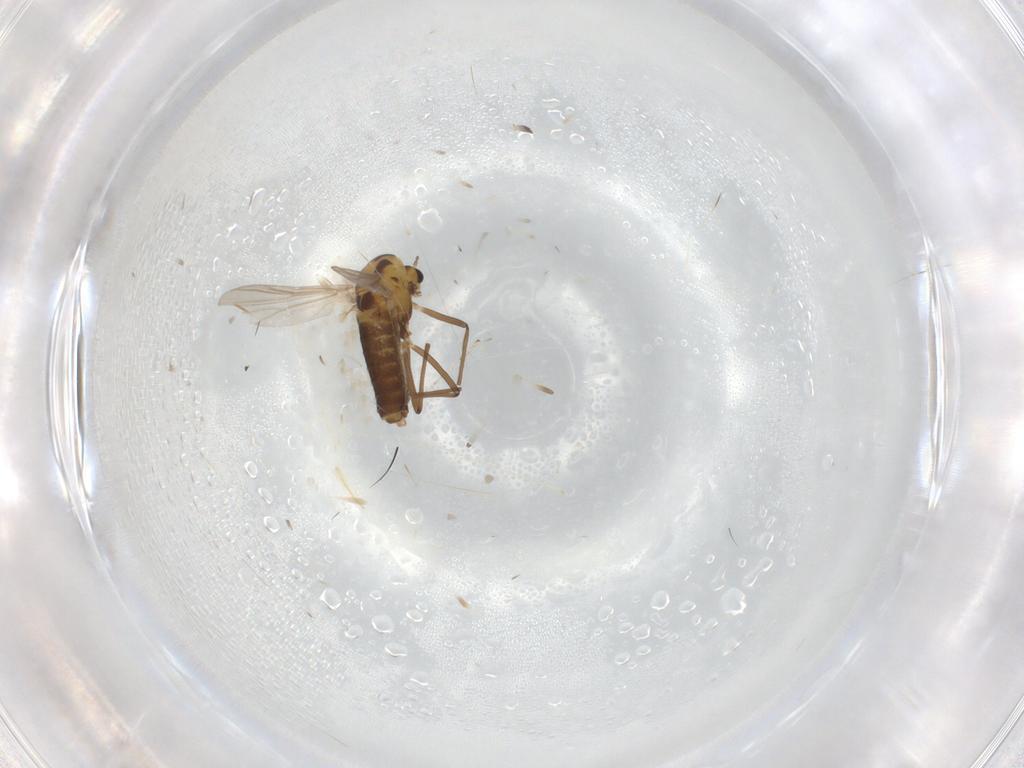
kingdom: Animalia
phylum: Arthropoda
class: Insecta
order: Diptera
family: Chironomidae
